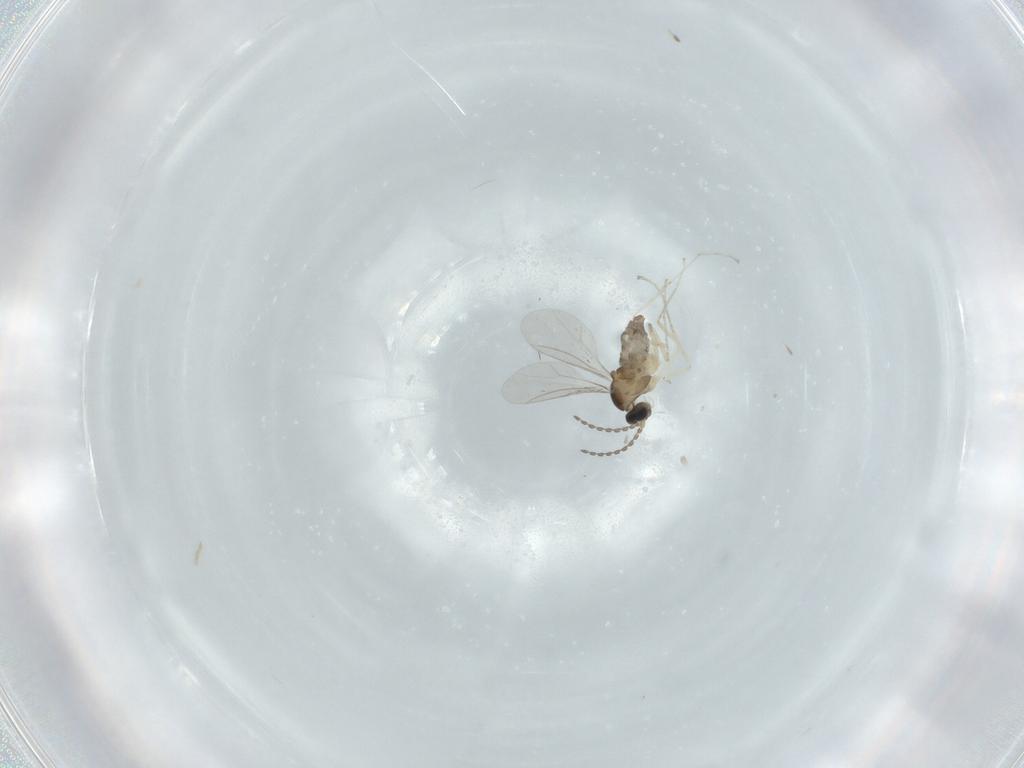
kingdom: Animalia
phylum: Arthropoda
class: Insecta
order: Diptera
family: Cecidomyiidae
